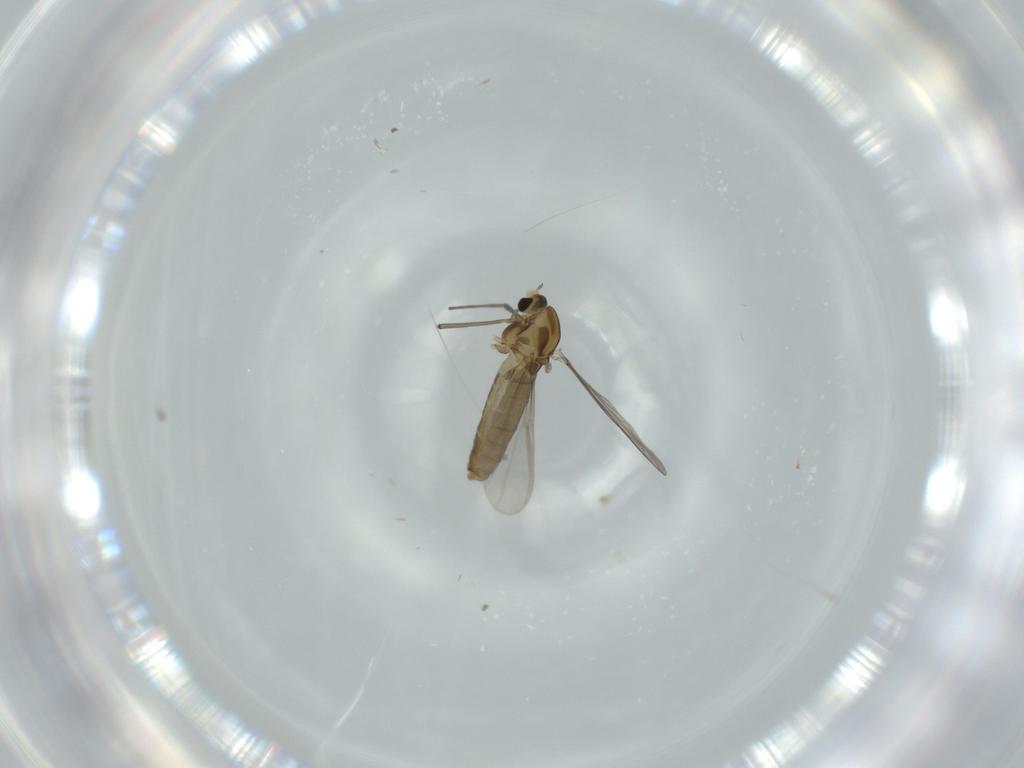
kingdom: Animalia
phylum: Arthropoda
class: Insecta
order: Diptera
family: Chironomidae
